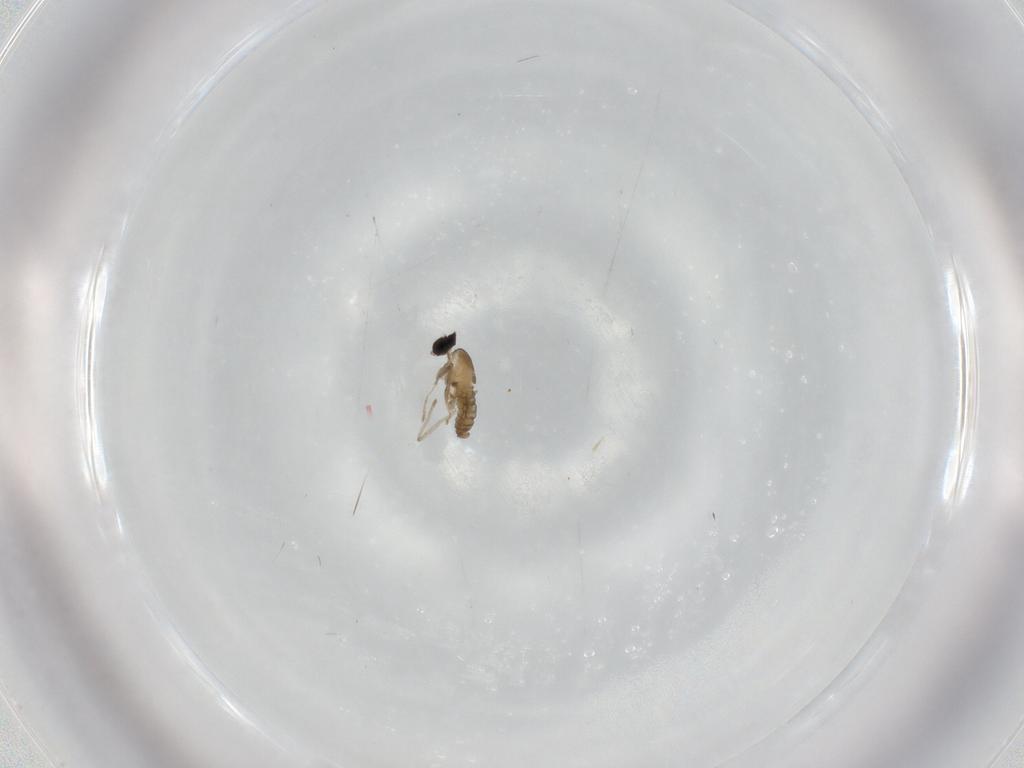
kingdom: Animalia
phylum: Arthropoda
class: Insecta
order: Diptera
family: Cecidomyiidae
